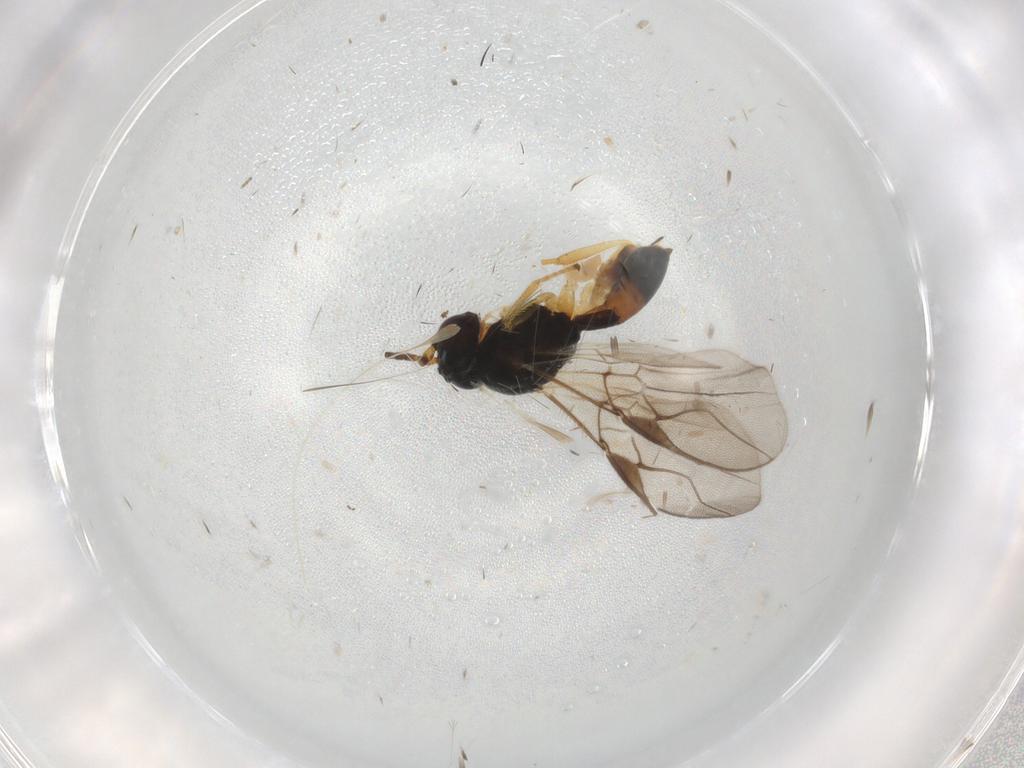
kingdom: Animalia
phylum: Arthropoda
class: Insecta
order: Hymenoptera
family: Braconidae
